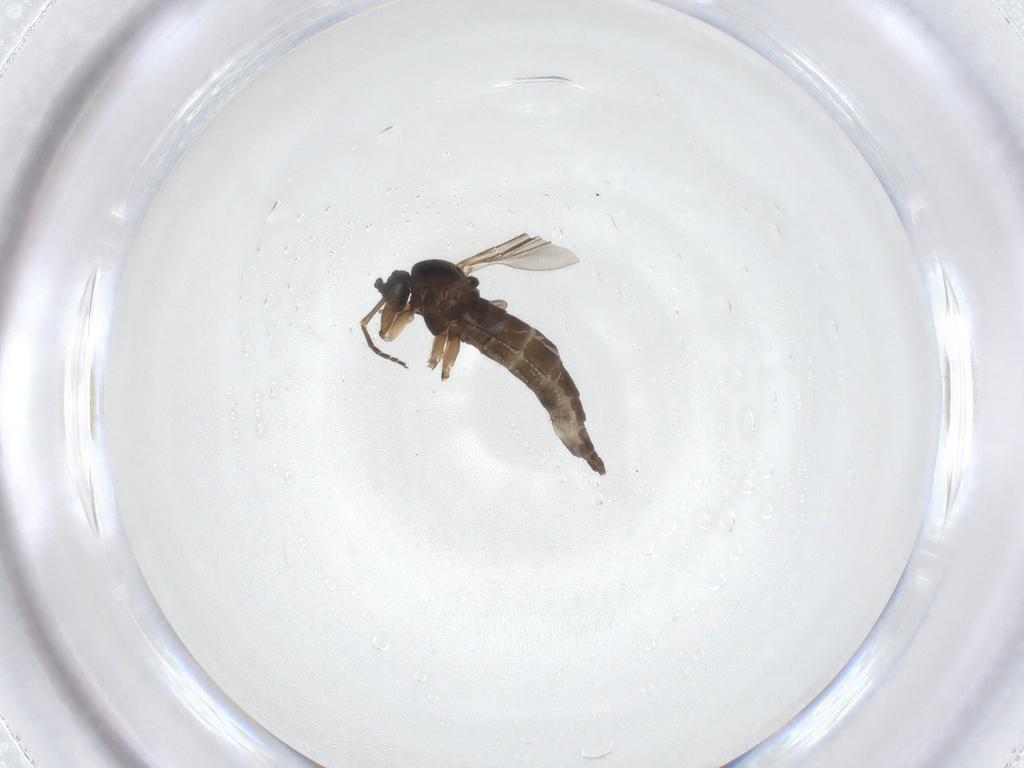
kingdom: Animalia
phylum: Arthropoda
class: Insecta
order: Diptera
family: Sciaridae
